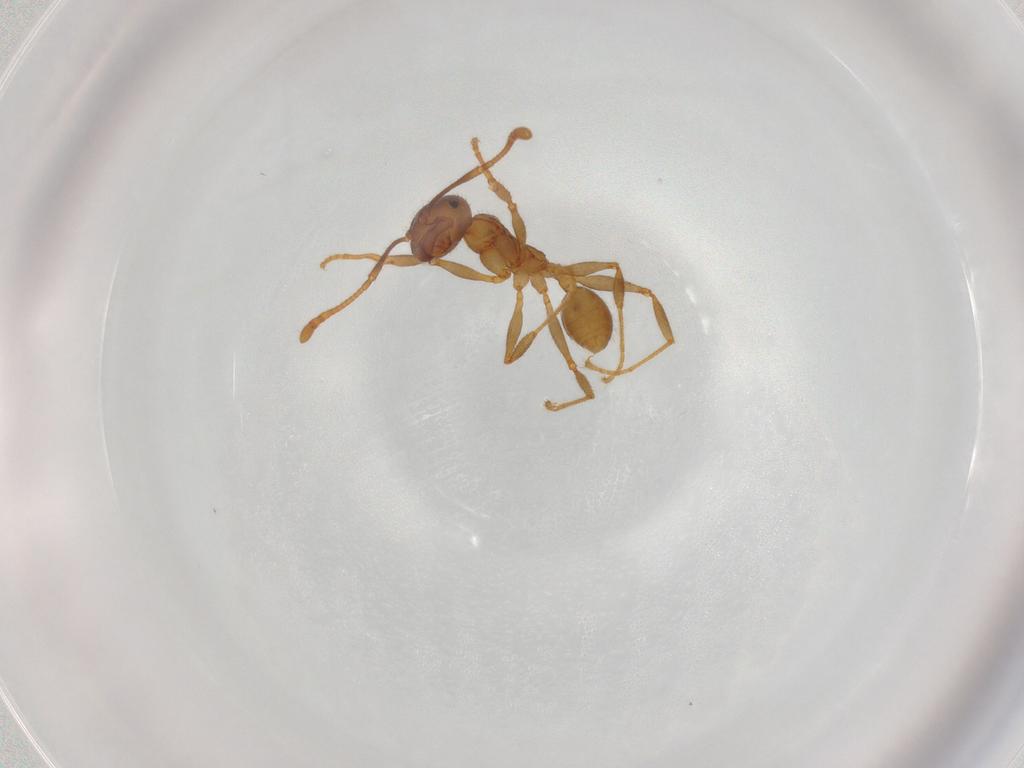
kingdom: Animalia
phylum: Arthropoda
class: Insecta
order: Hymenoptera
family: Formicidae
